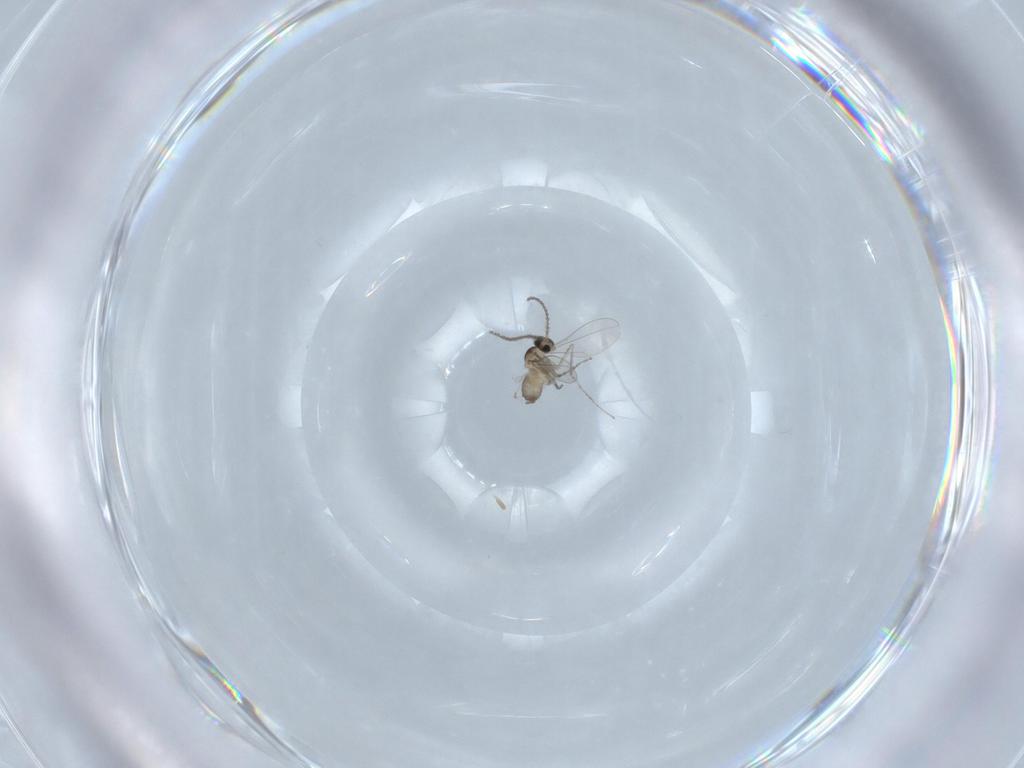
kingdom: Animalia
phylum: Arthropoda
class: Insecta
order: Diptera
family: Cecidomyiidae
